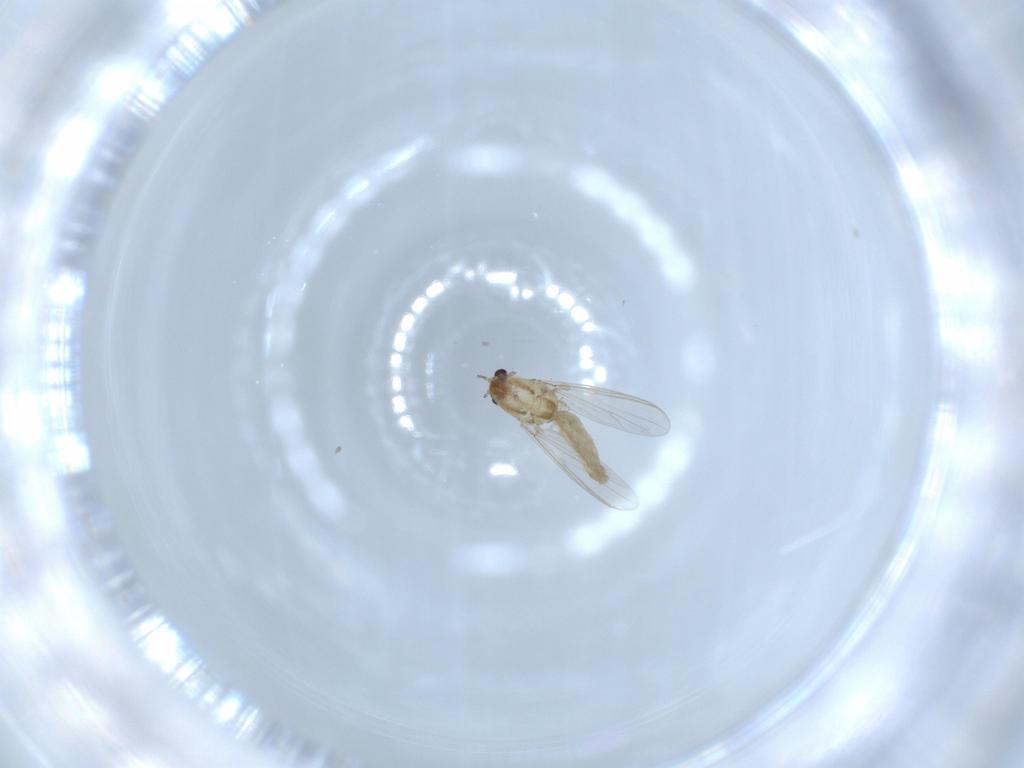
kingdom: Animalia
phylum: Arthropoda
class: Insecta
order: Diptera
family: Chironomidae
